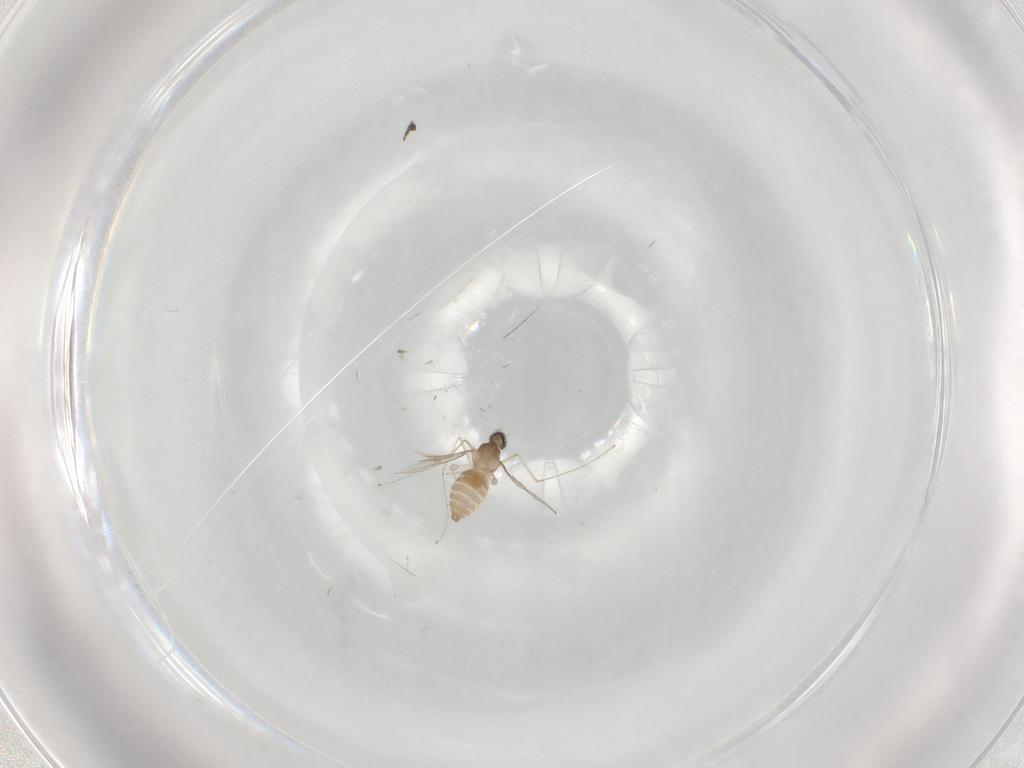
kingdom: Animalia
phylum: Arthropoda
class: Insecta
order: Diptera
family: Cecidomyiidae
